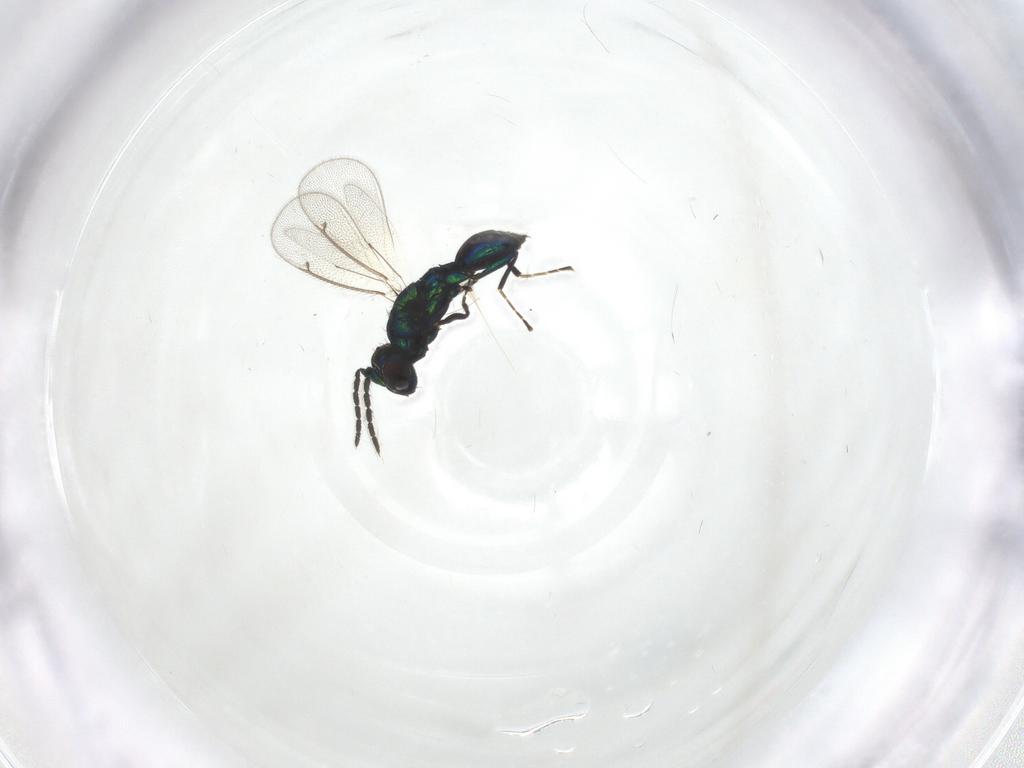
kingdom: Animalia
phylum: Arthropoda
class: Insecta
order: Hymenoptera
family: Eulophidae
